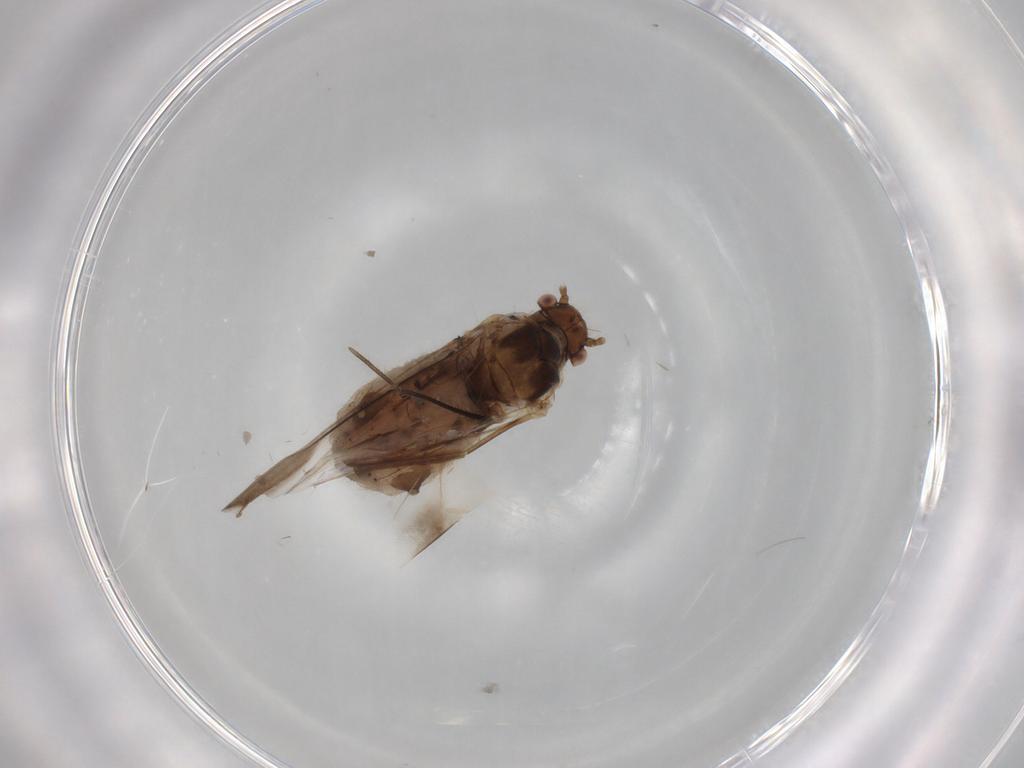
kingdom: Animalia
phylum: Arthropoda
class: Insecta
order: Hemiptera
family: Aphididae
